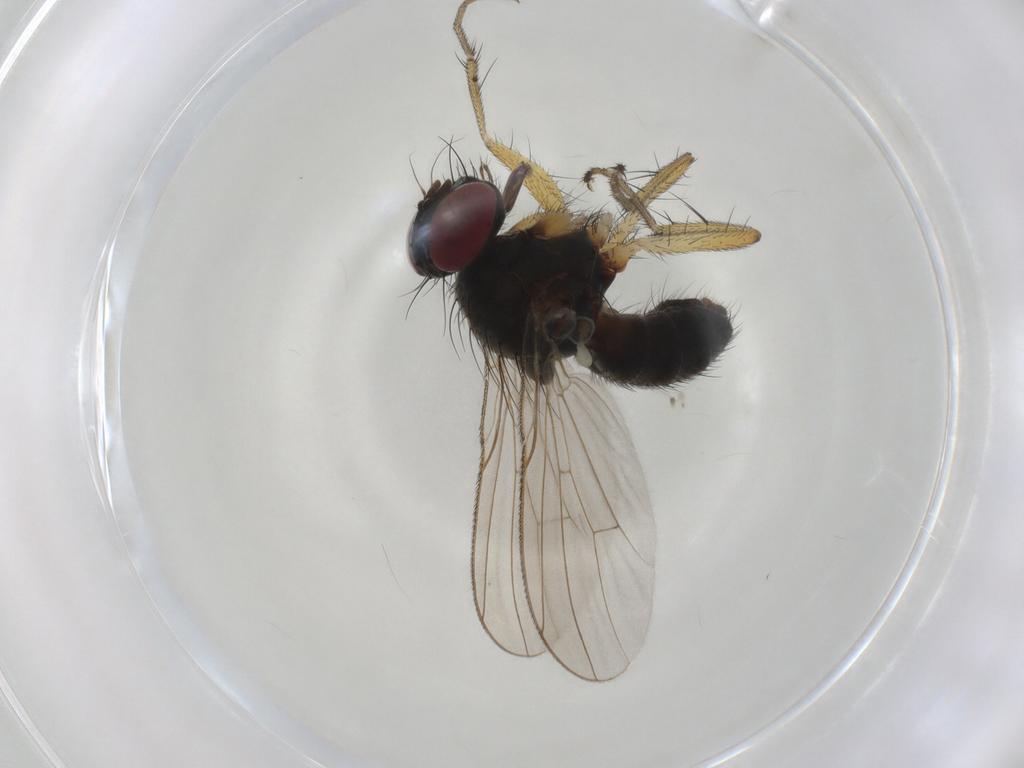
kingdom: Animalia
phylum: Arthropoda
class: Insecta
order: Diptera
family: Muscidae
